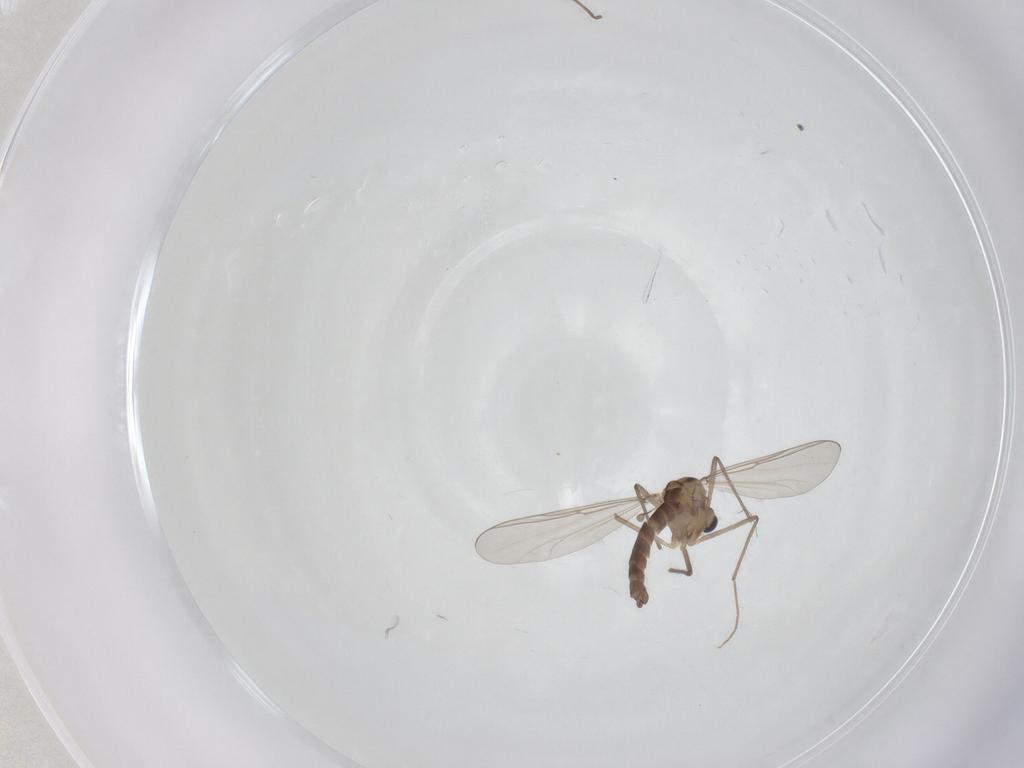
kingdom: Animalia
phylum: Arthropoda
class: Insecta
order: Diptera
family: Chironomidae
